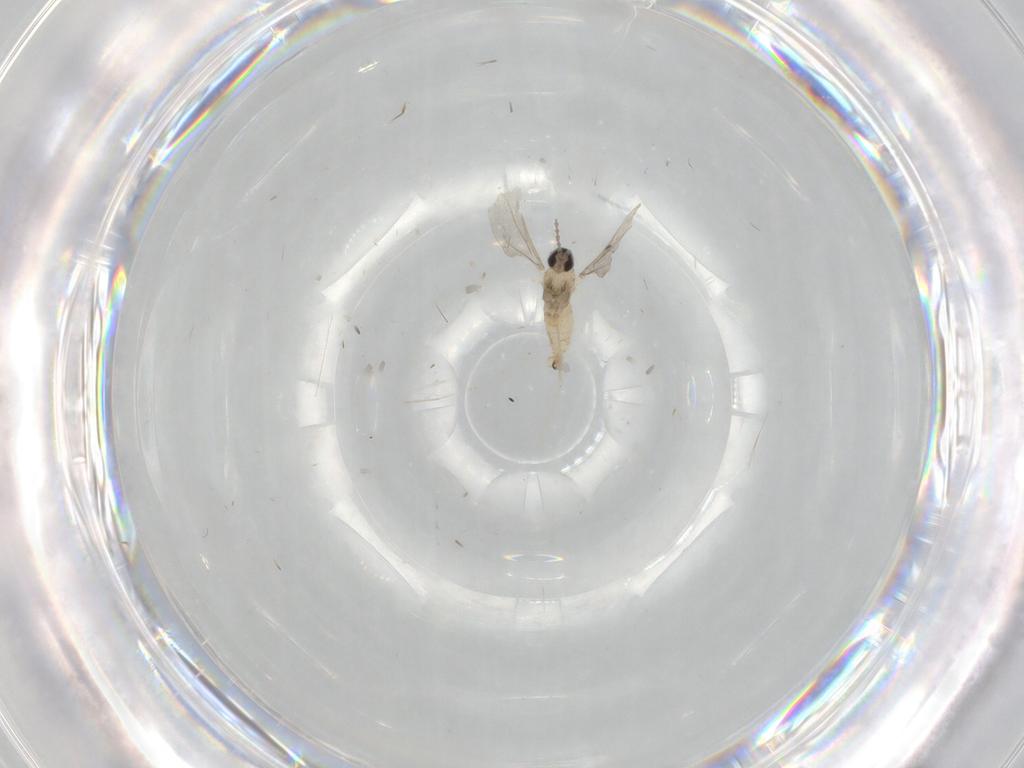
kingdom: Animalia
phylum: Arthropoda
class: Insecta
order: Diptera
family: Cecidomyiidae
